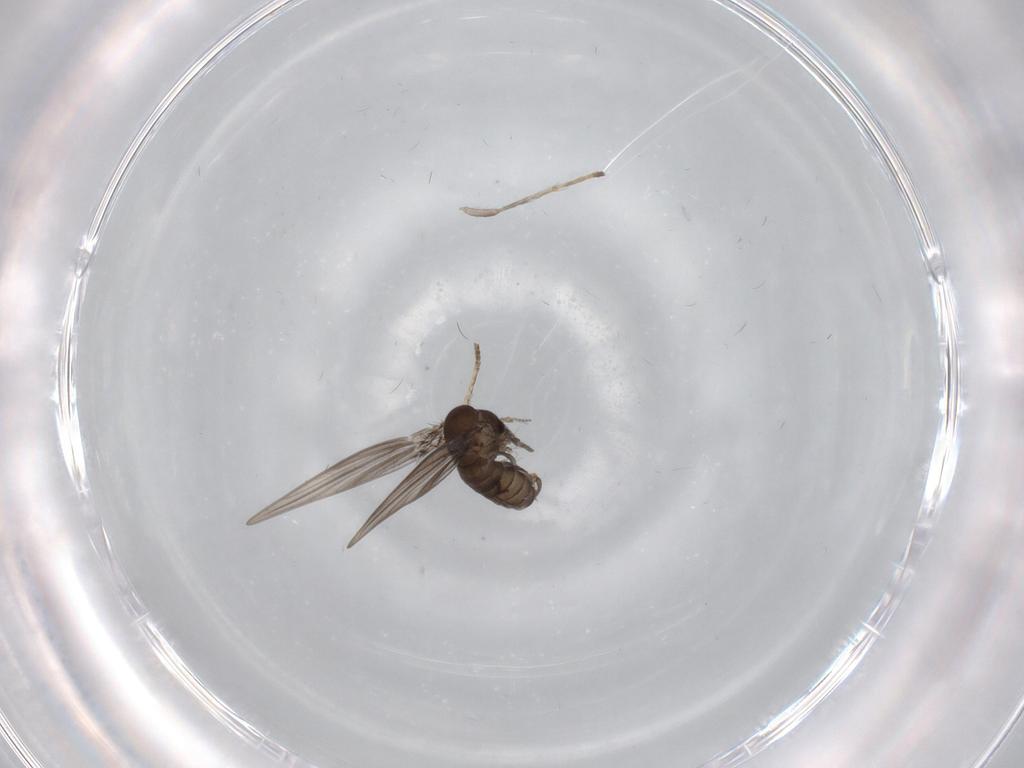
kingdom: Animalia
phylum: Arthropoda
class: Insecta
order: Diptera
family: Psychodidae
